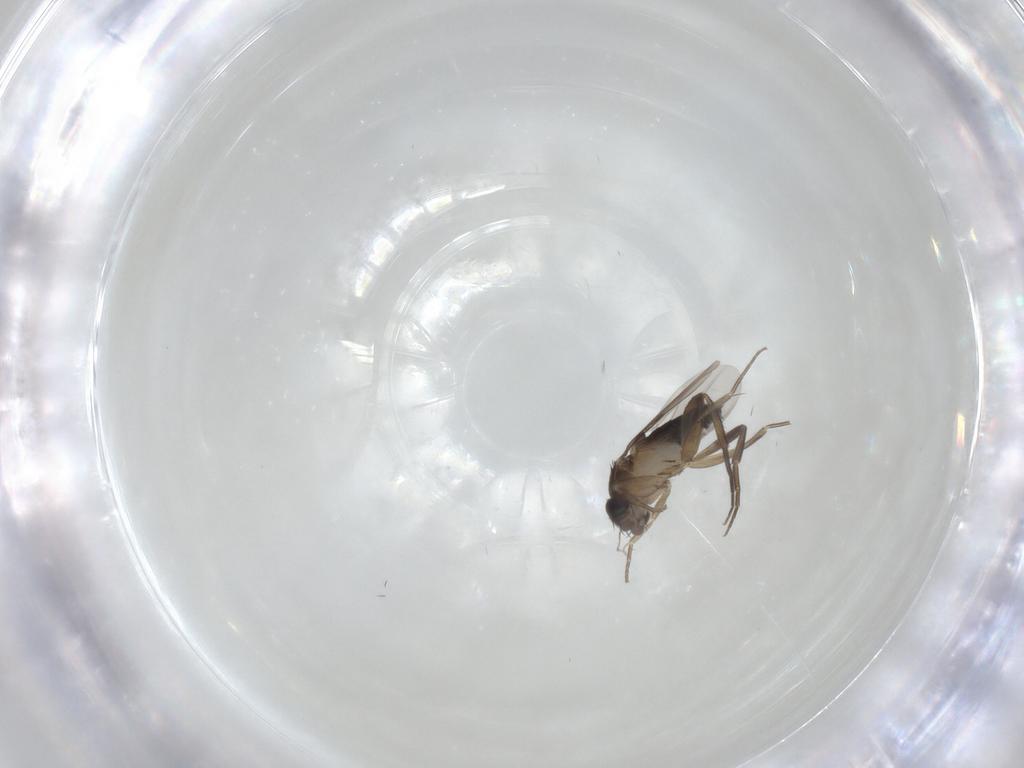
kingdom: Animalia
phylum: Arthropoda
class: Insecta
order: Diptera
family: Phoridae
